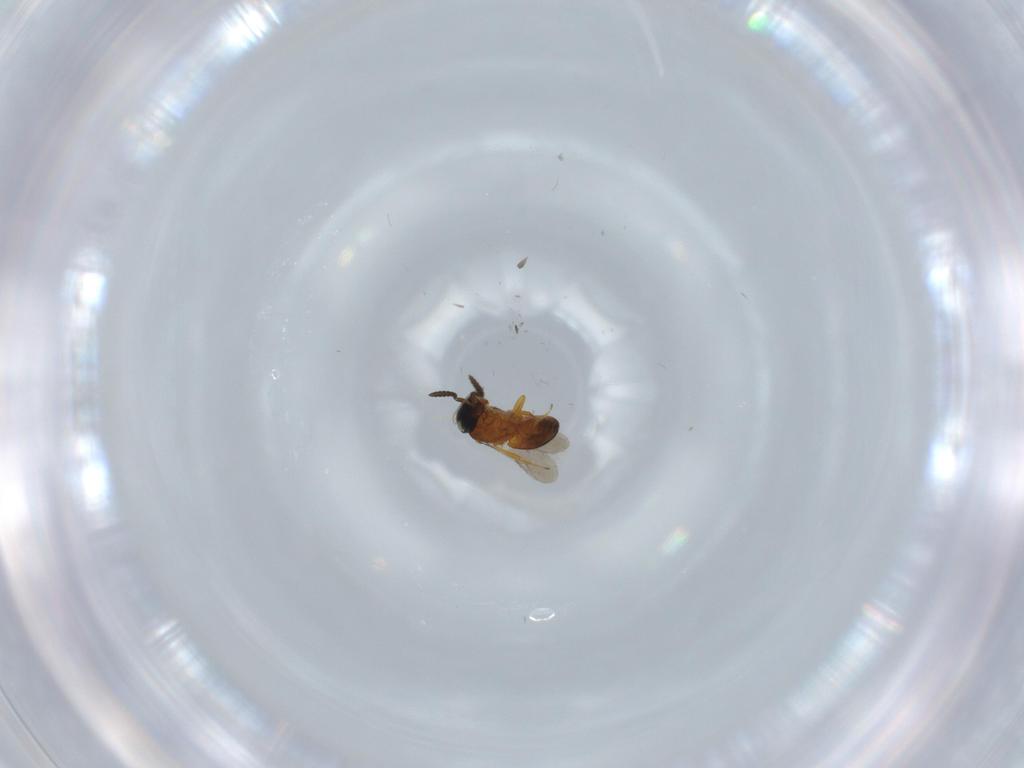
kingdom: Animalia
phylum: Arthropoda
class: Insecta
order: Hymenoptera
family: Scelionidae
